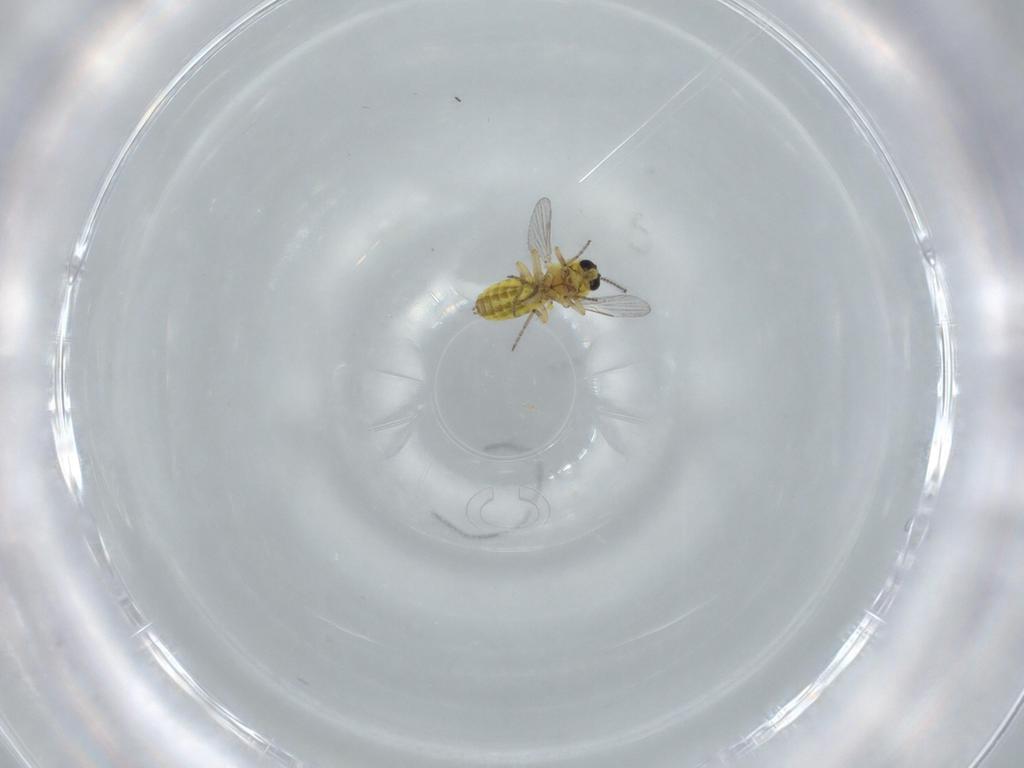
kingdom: Animalia
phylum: Arthropoda
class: Insecta
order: Diptera
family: Ceratopogonidae
